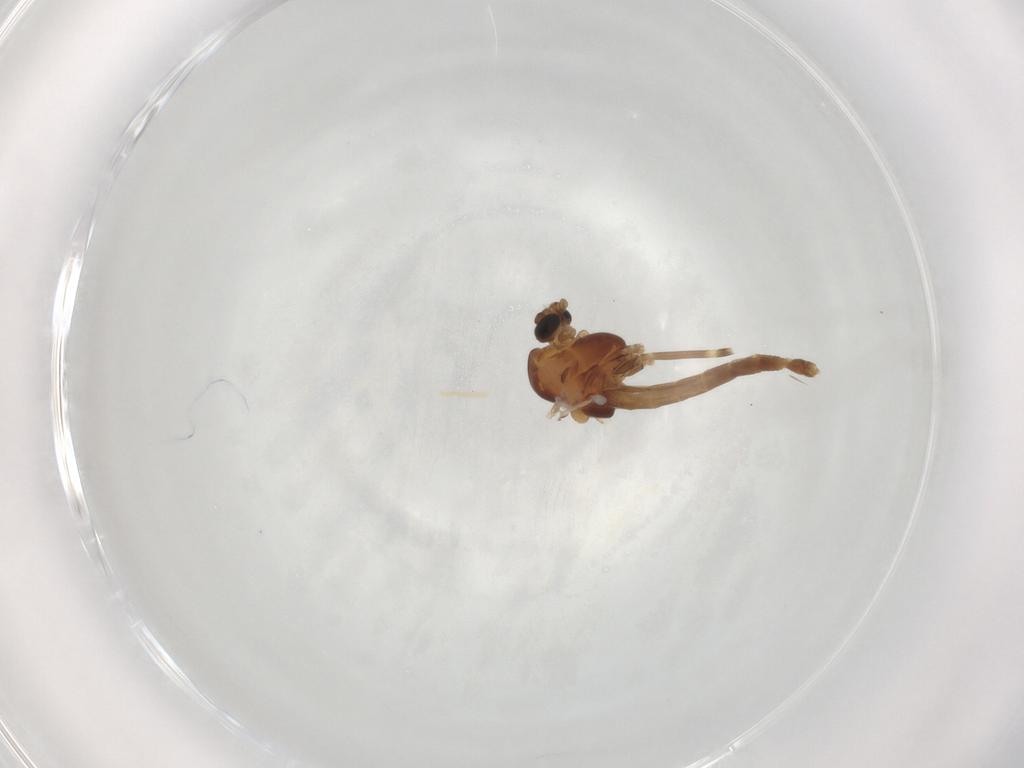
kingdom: Animalia
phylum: Arthropoda
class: Insecta
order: Diptera
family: Chironomidae
